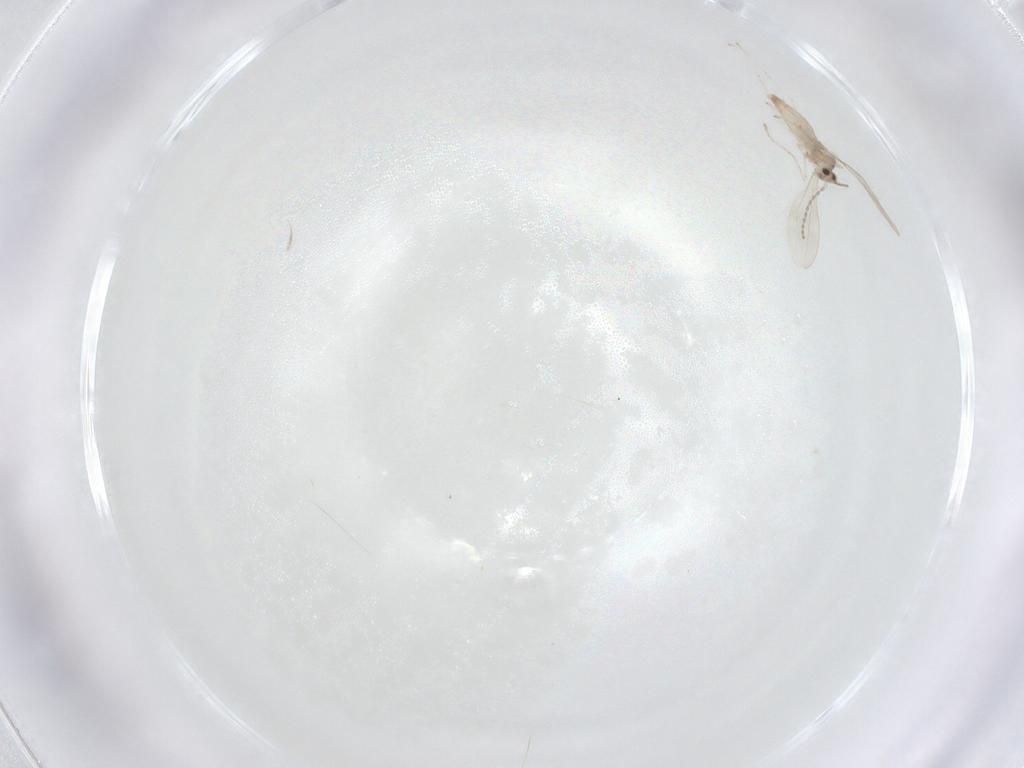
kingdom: Animalia
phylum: Arthropoda
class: Insecta
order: Diptera
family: Cecidomyiidae
